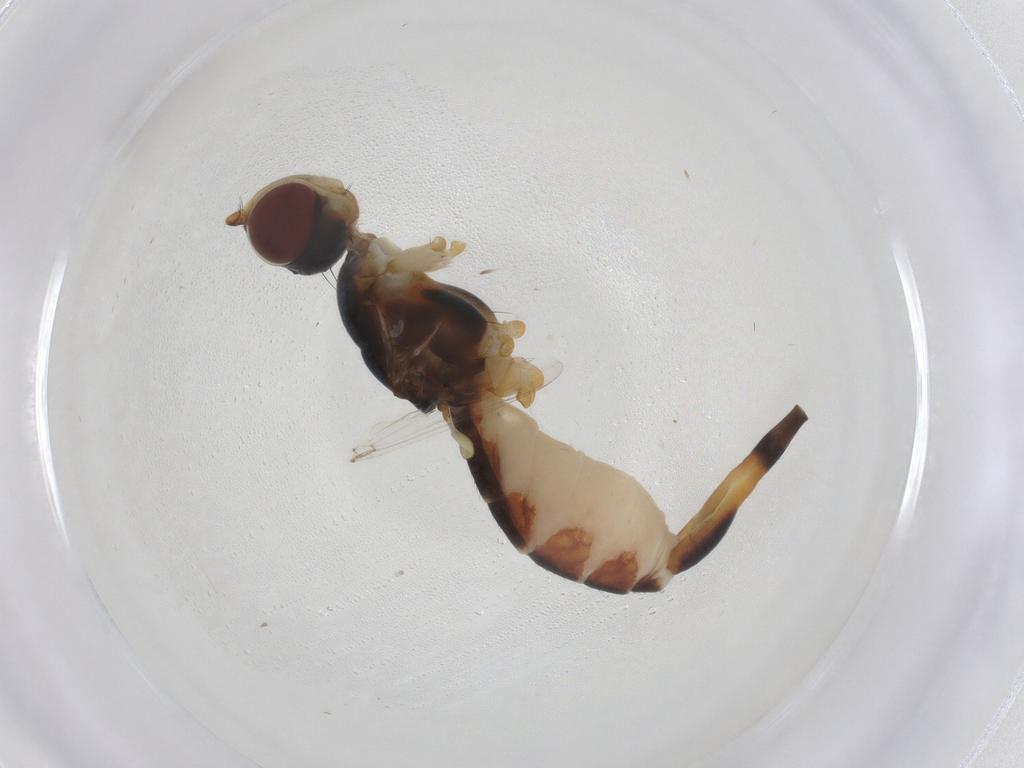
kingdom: Animalia
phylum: Arthropoda
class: Insecta
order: Diptera
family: Micropezidae
